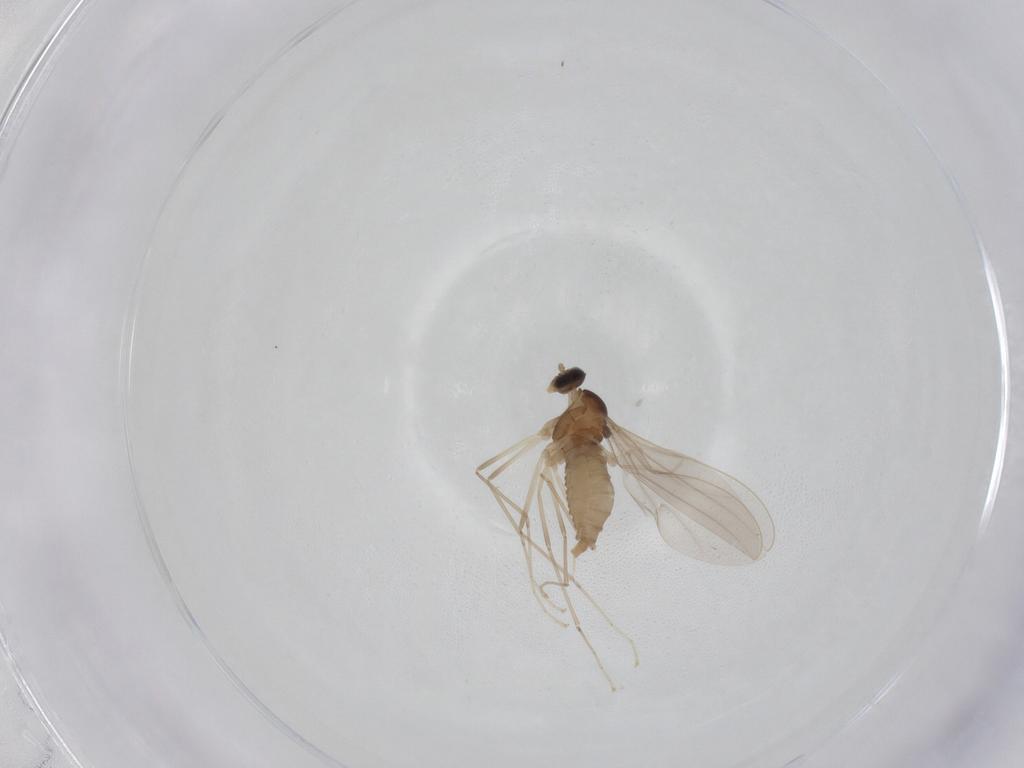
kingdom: Animalia
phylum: Arthropoda
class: Insecta
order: Diptera
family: Cecidomyiidae
